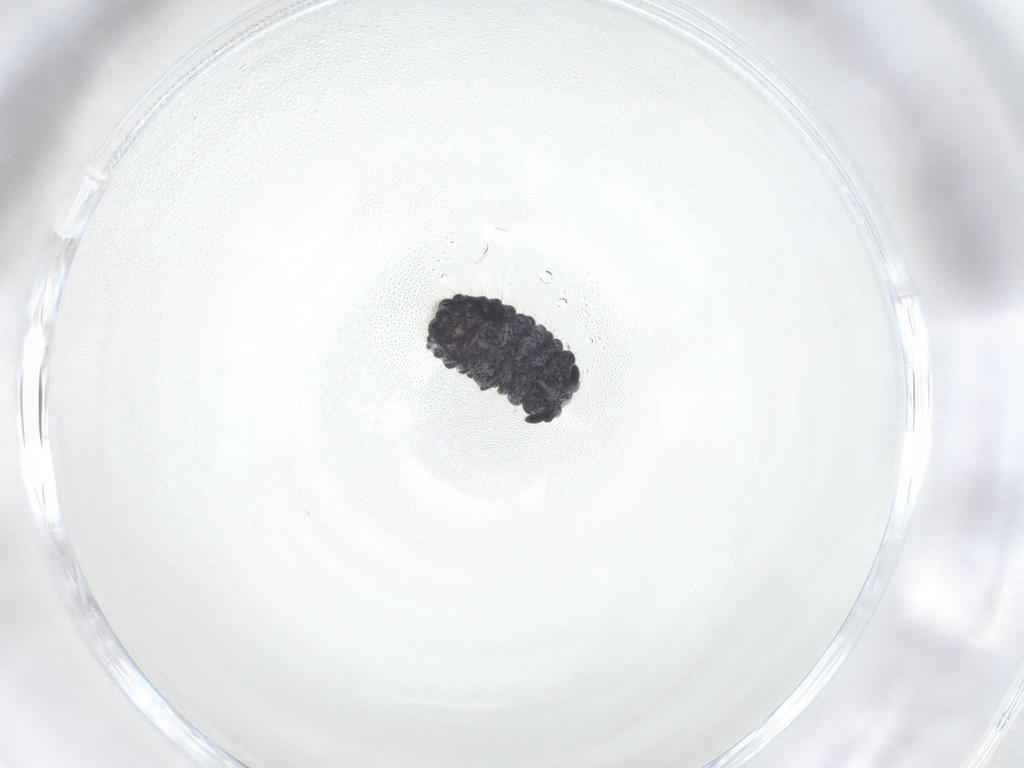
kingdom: Animalia
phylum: Arthropoda
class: Collembola
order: Poduromorpha
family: Neanuridae
